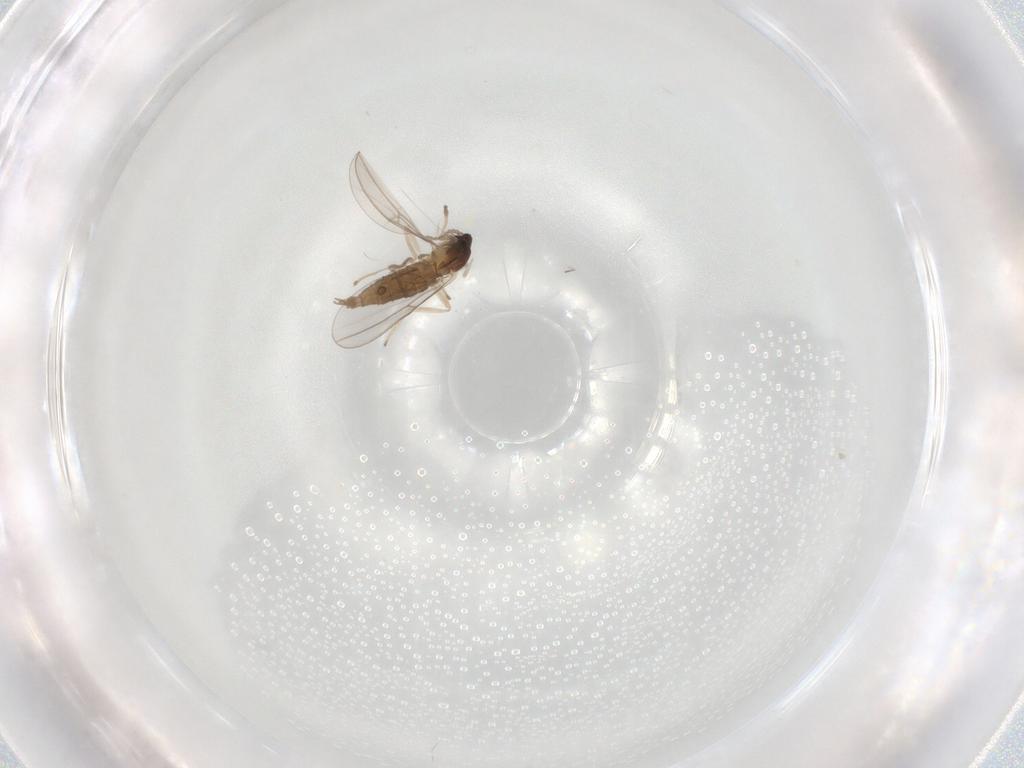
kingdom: Animalia
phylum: Arthropoda
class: Insecta
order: Diptera
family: Cecidomyiidae
